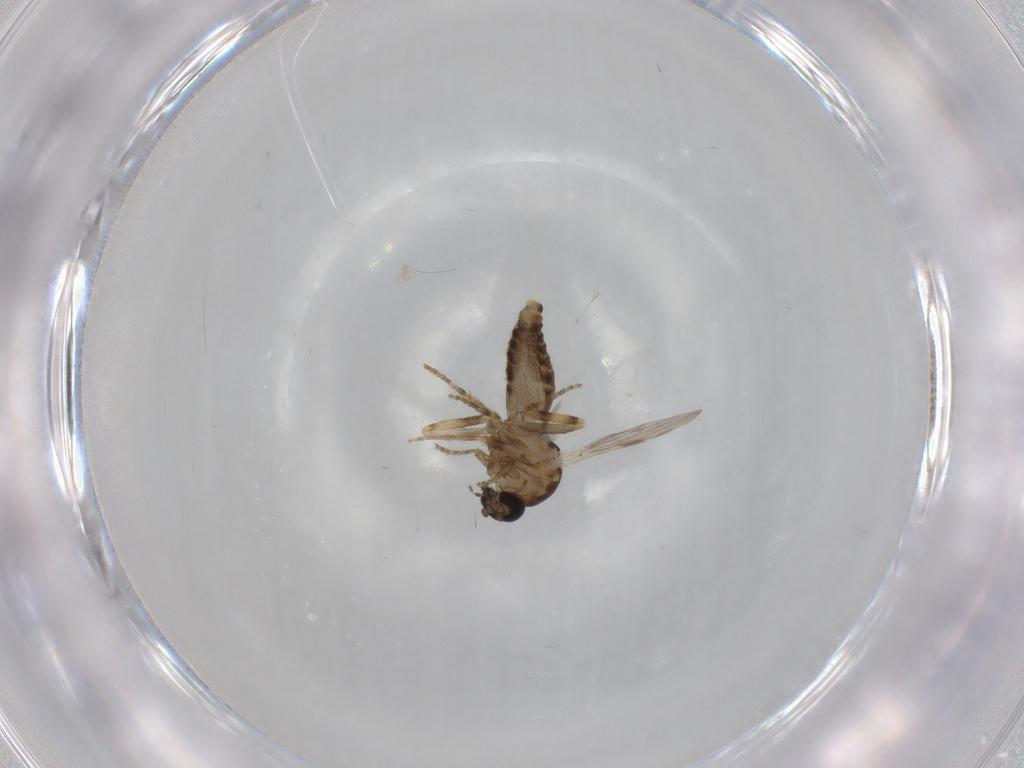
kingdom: Animalia
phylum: Arthropoda
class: Insecta
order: Diptera
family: Ceratopogonidae
